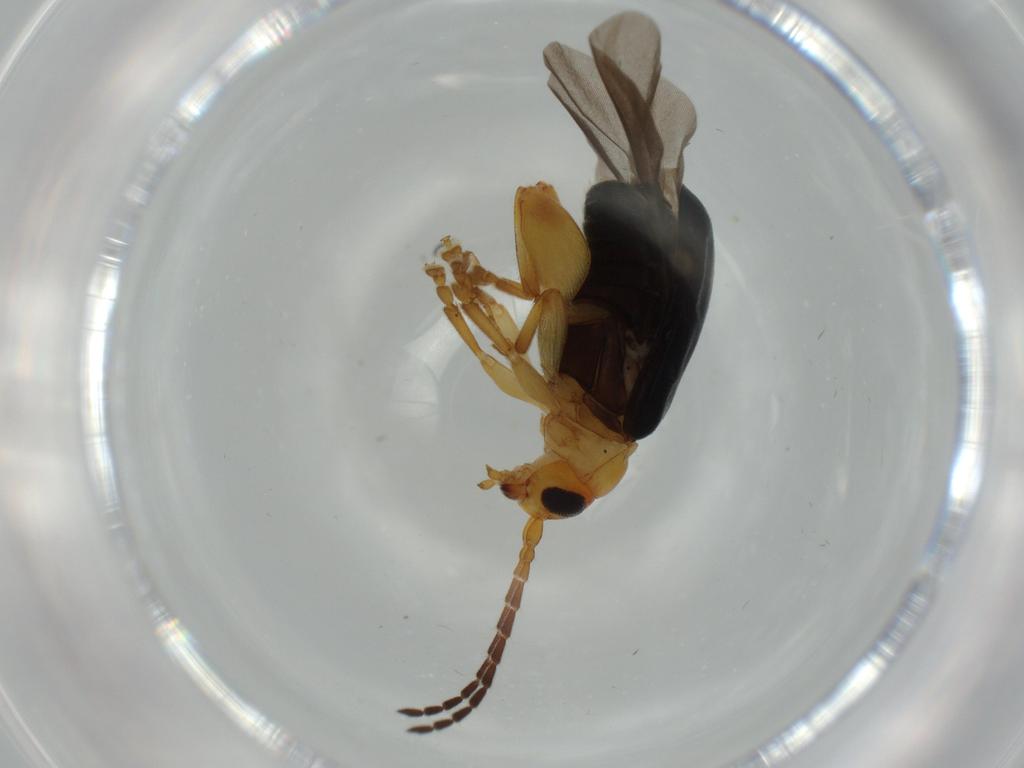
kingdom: Animalia
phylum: Arthropoda
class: Insecta
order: Coleoptera
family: Chrysomelidae
